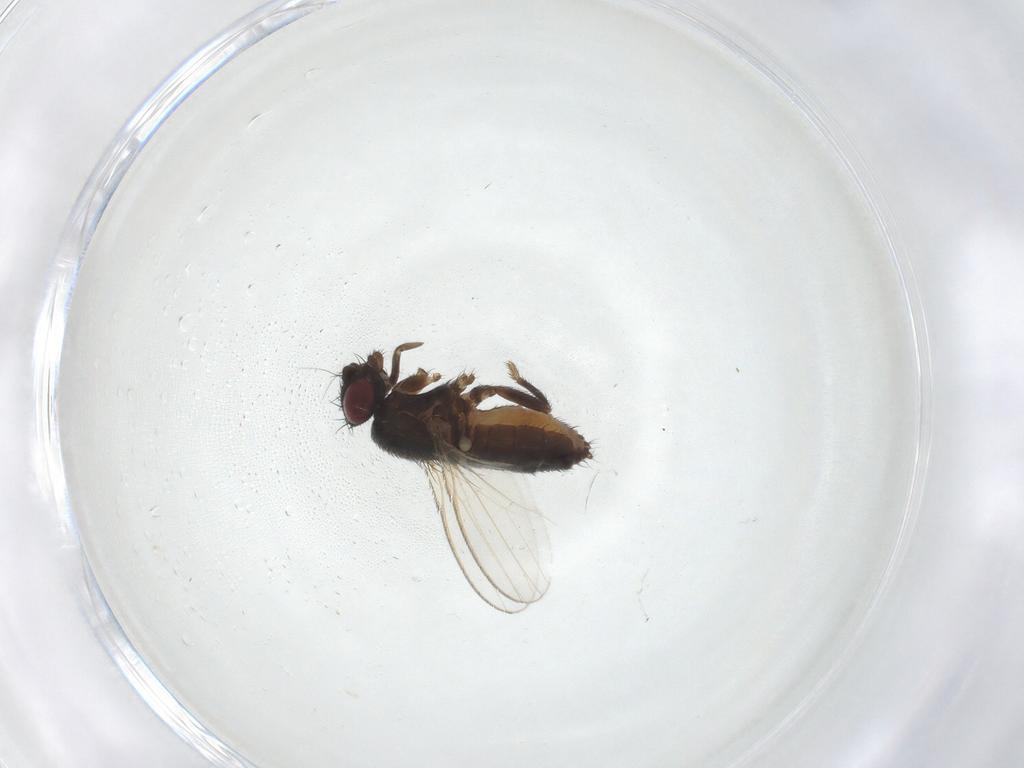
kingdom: Animalia
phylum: Arthropoda
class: Insecta
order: Diptera
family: Milichiidae
